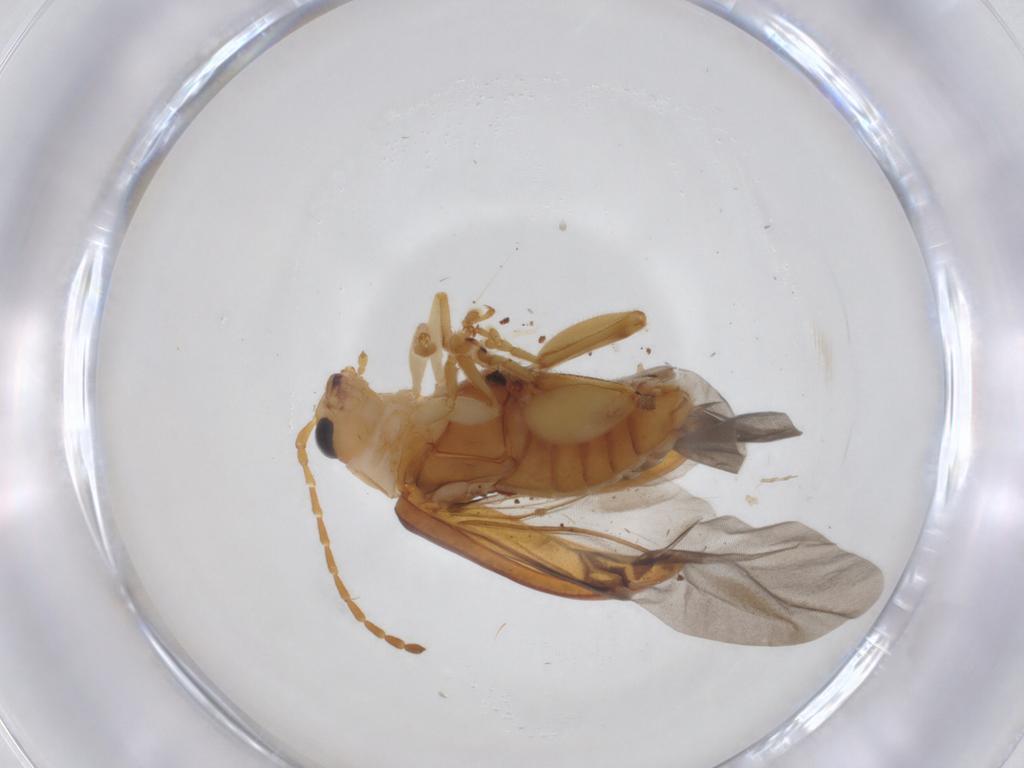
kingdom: Animalia
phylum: Arthropoda
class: Insecta
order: Coleoptera
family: Chrysomelidae
